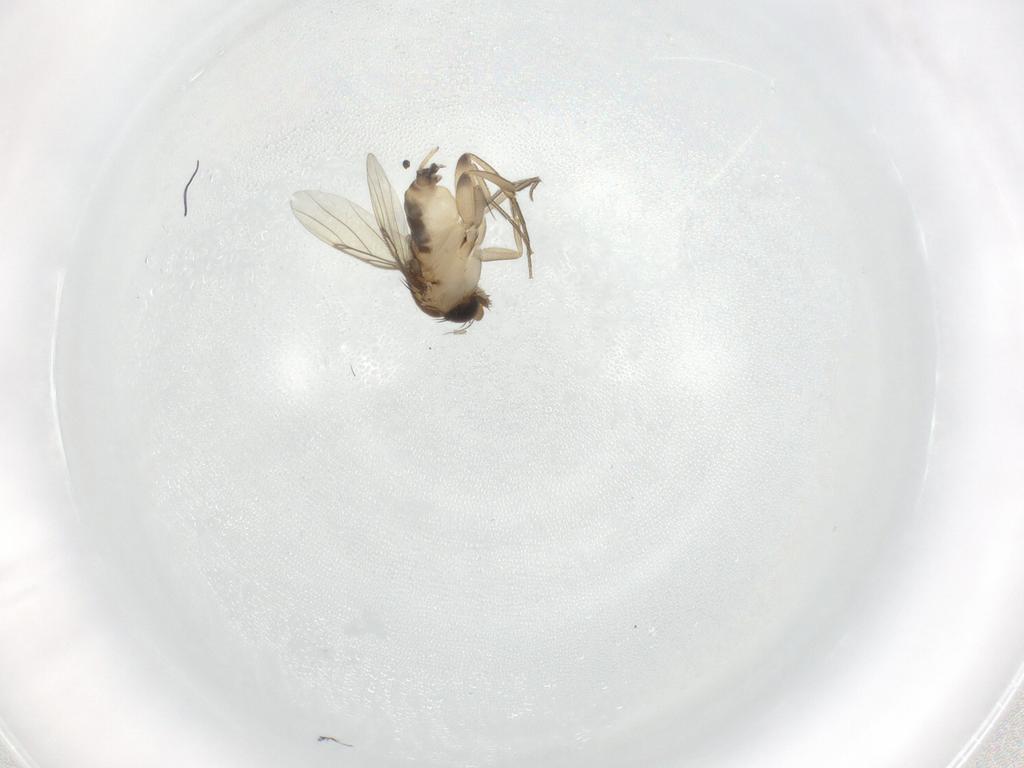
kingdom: Animalia
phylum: Arthropoda
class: Insecta
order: Diptera
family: Phoridae
